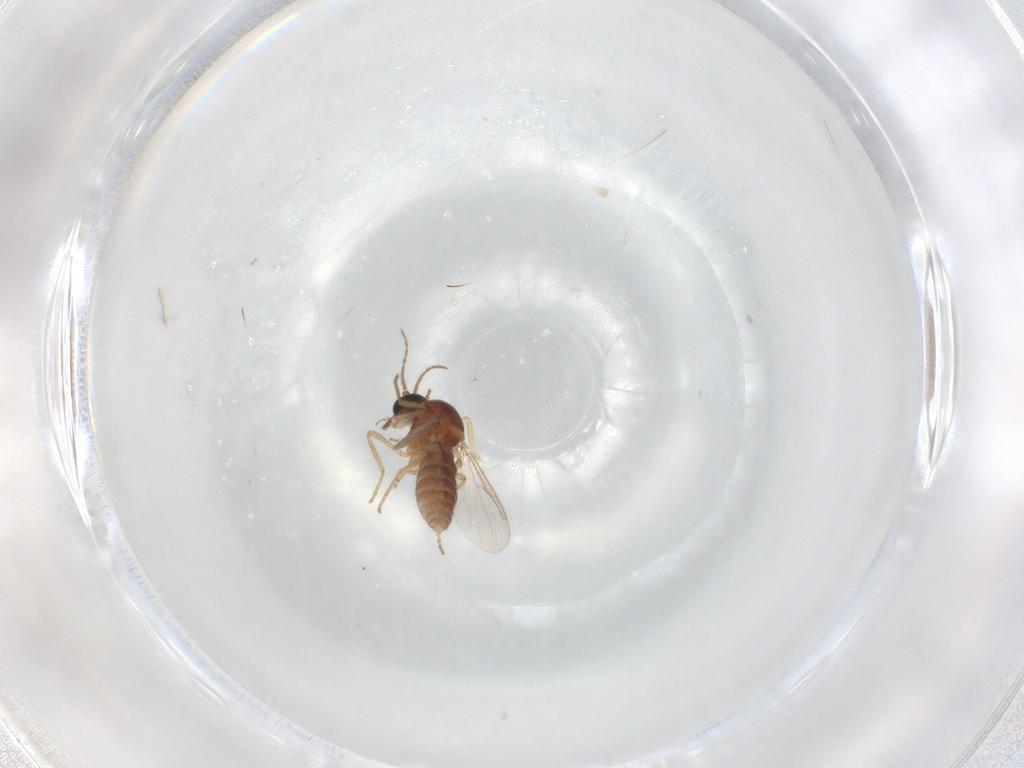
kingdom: Animalia
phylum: Arthropoda
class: Insecta
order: Diptera
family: Ceratopogonidae
